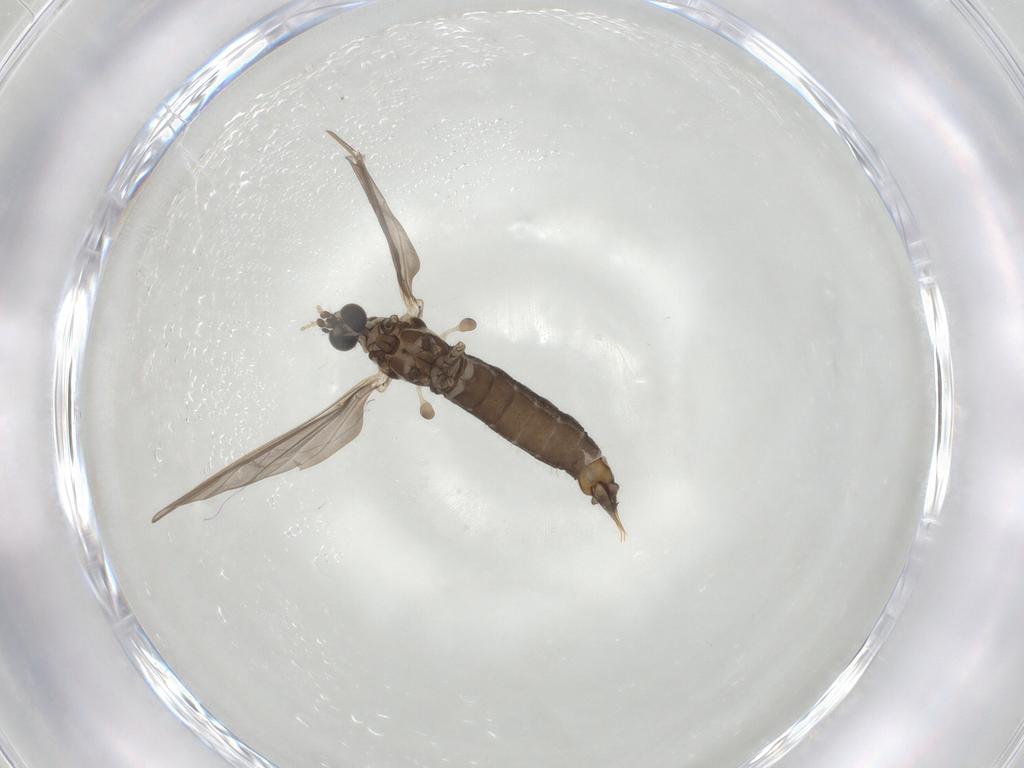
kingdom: Animalia
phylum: Arthropoda
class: Insecta
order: Diptera
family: Limoniidae
